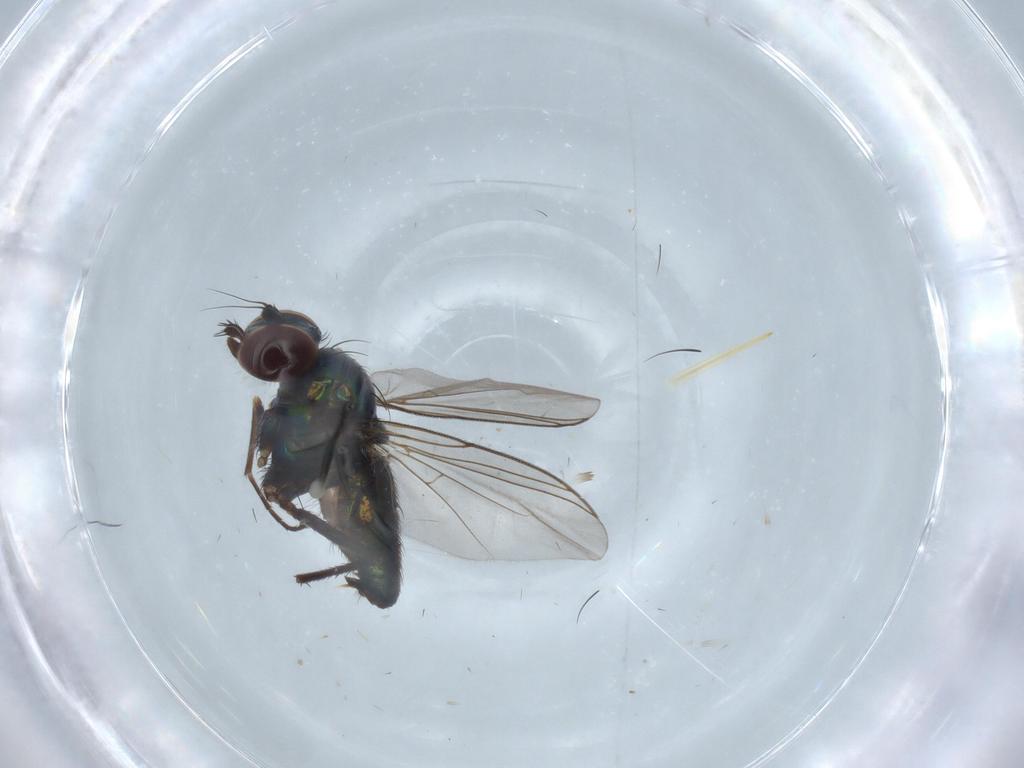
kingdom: Animalia
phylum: Arthropoda
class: Insecta
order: Diptera
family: Dolichopodidae
